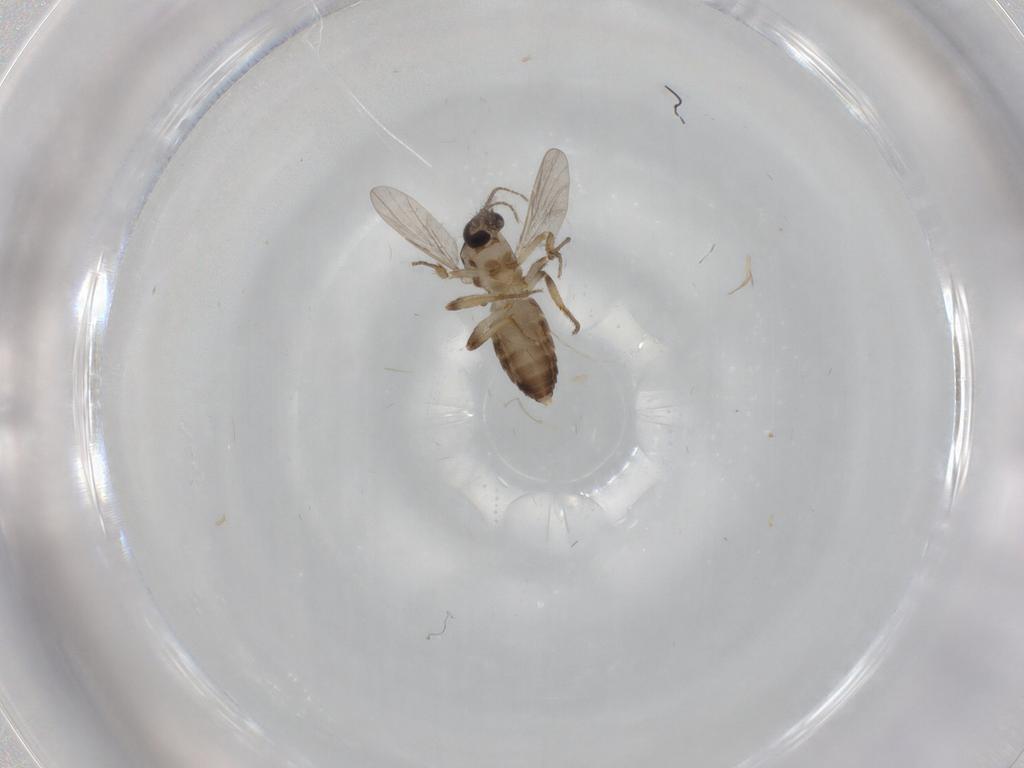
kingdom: Animalia
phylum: Arthropoda
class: Insecta
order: Diptera
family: Ceratopogonidae
